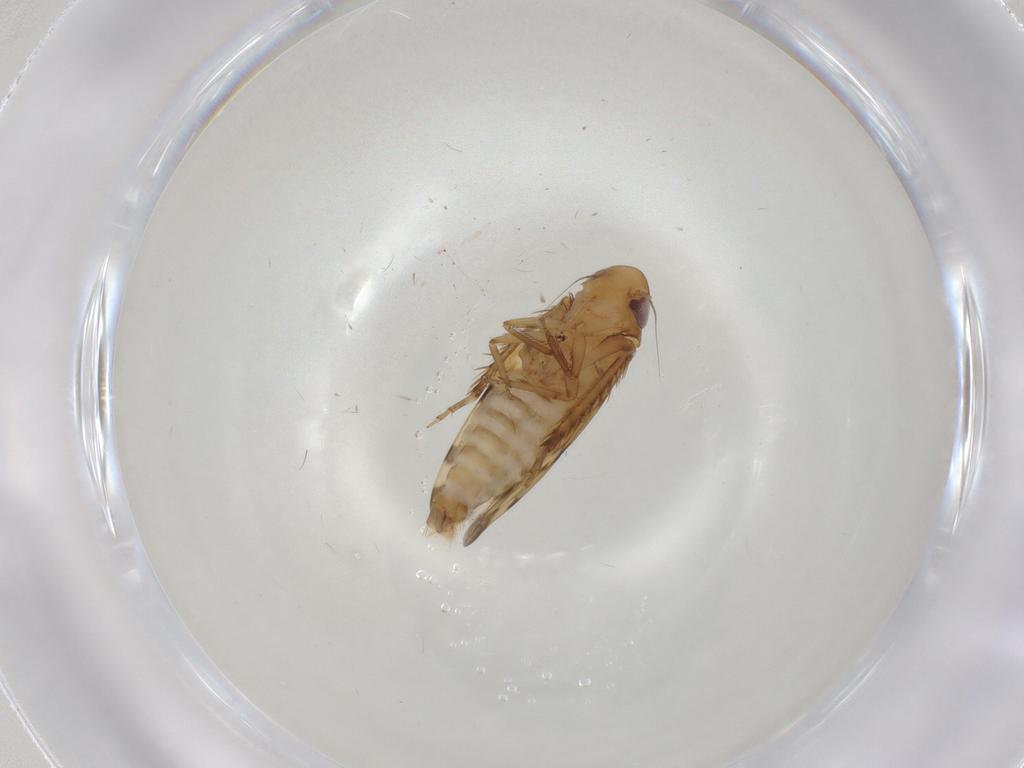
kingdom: Animalia
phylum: Arthropoda
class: Insecta
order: Hemiptera
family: Cicadellidae
